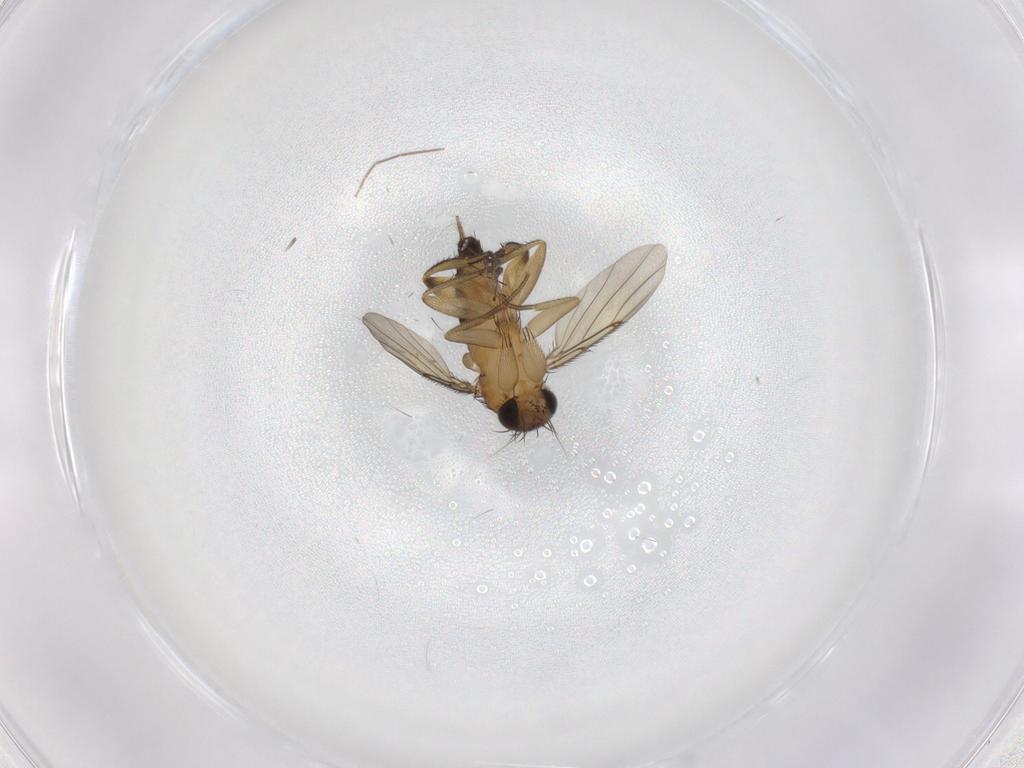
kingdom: Animalia
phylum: Arthropoda
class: Insecta
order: Diptera
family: Phoridae
